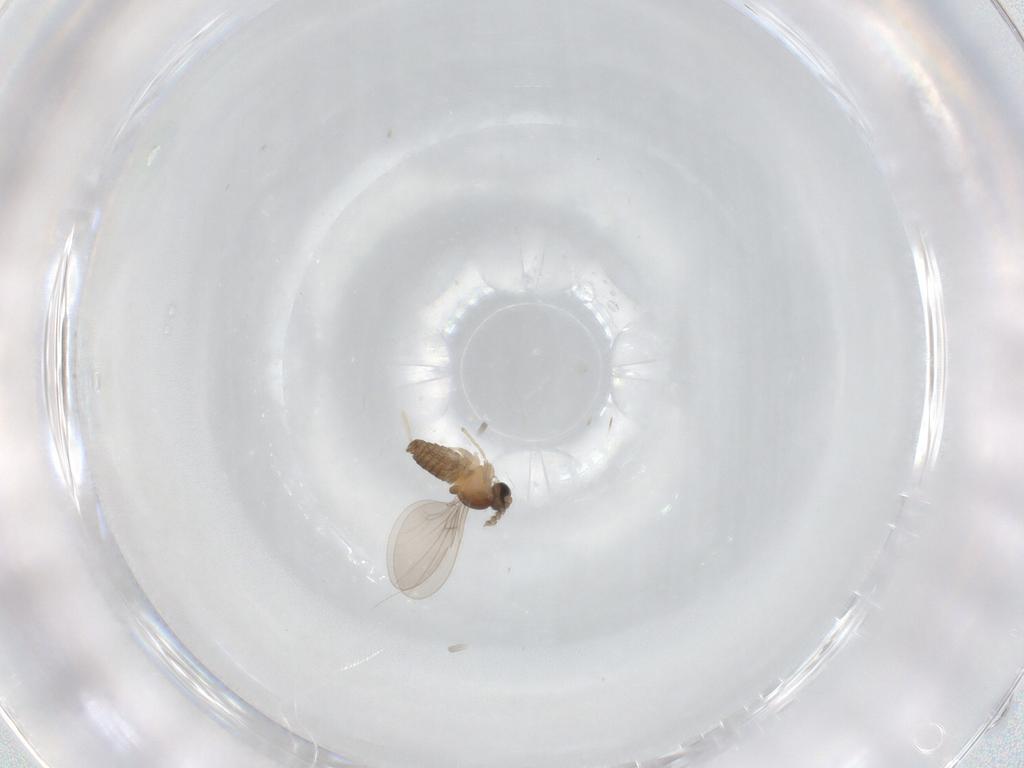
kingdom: Animalia
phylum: Arthropoda
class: Insecta
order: Diptera
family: Cecidomyiidae
